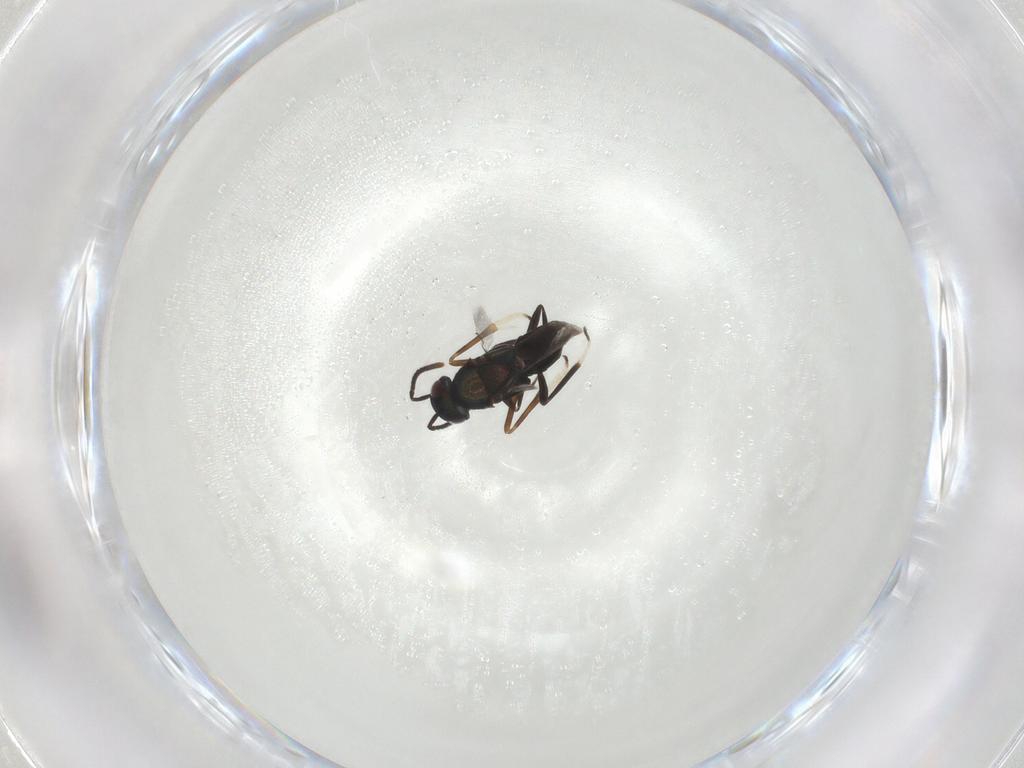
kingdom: Animalia
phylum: Arthropoda
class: Insecta
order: Hymenoptera
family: Encyrtidae
